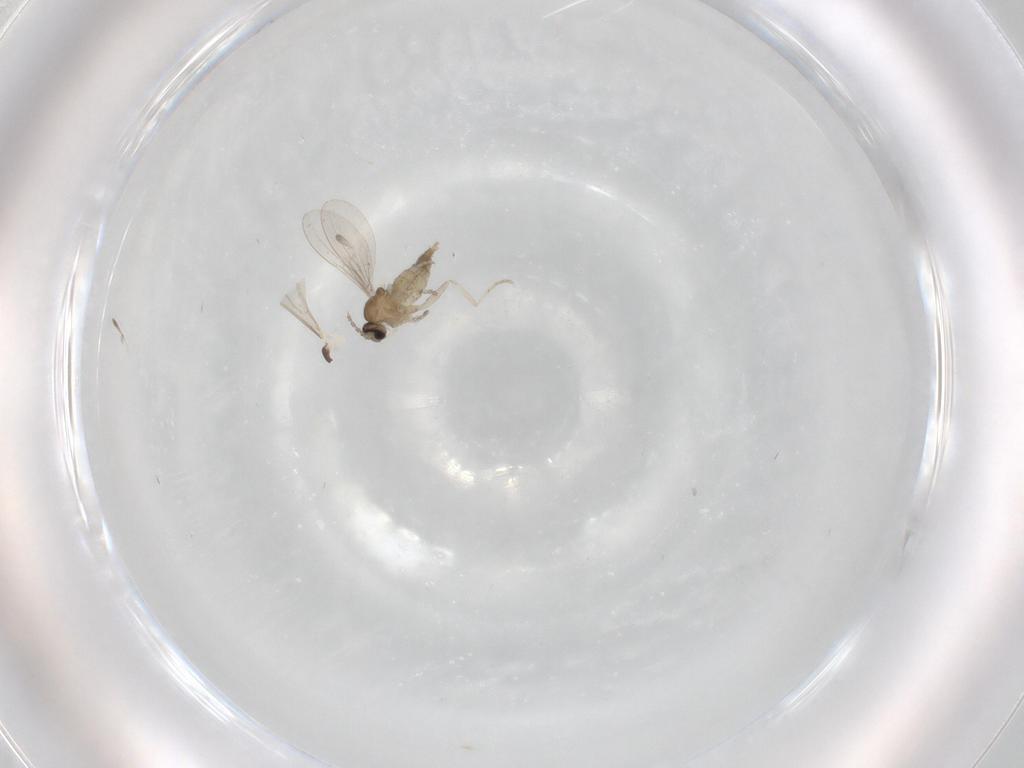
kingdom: Animalia
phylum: Arthropoda
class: Insecta
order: Diptera
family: Cecidomyiidae
